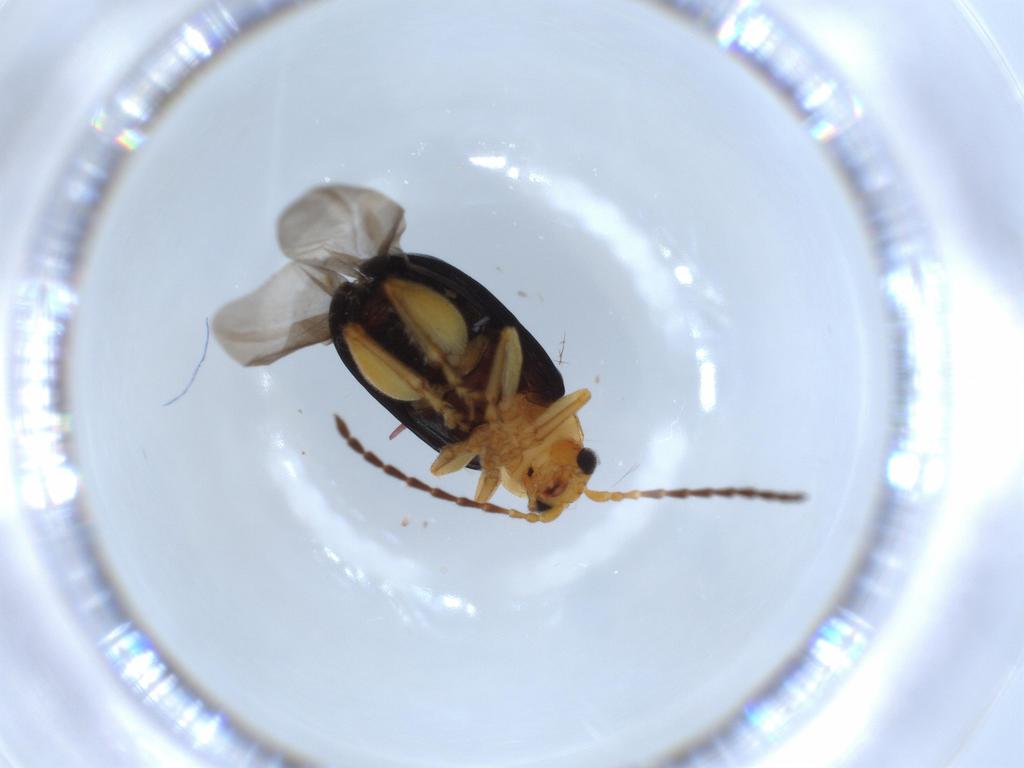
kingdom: Animalia
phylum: Arthropoda
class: Insecta
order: Coleoptera
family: Chrysomelidae
